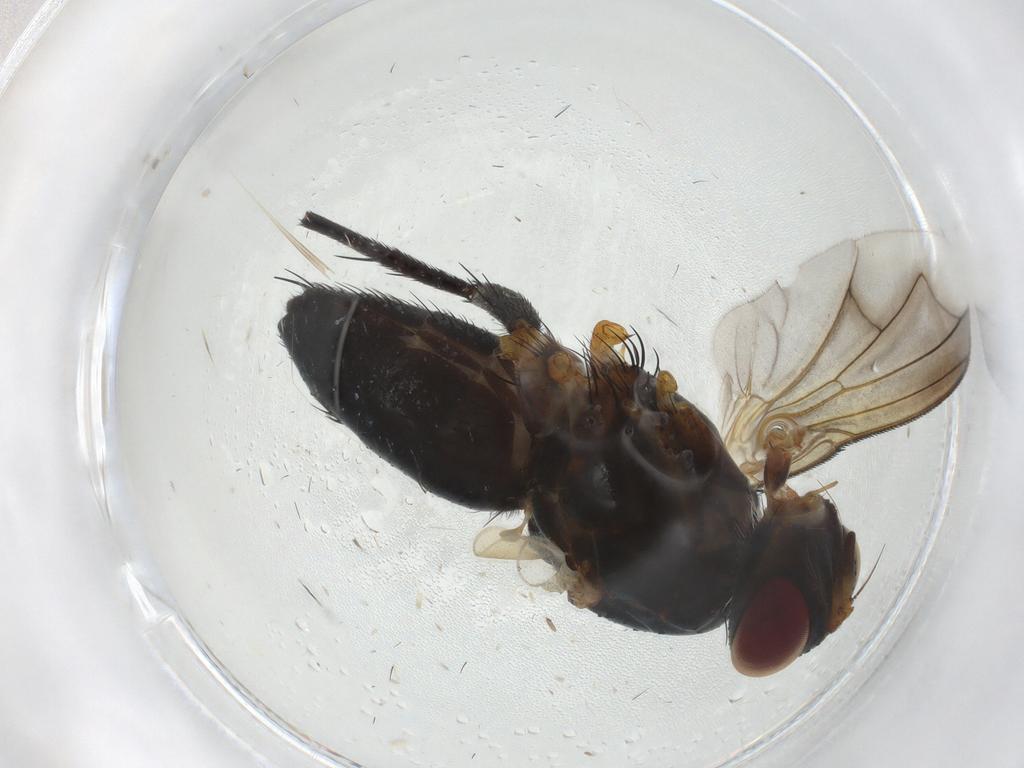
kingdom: Animalia
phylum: Arthropoda
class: Insecta
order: Diptera
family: Tachinidae
